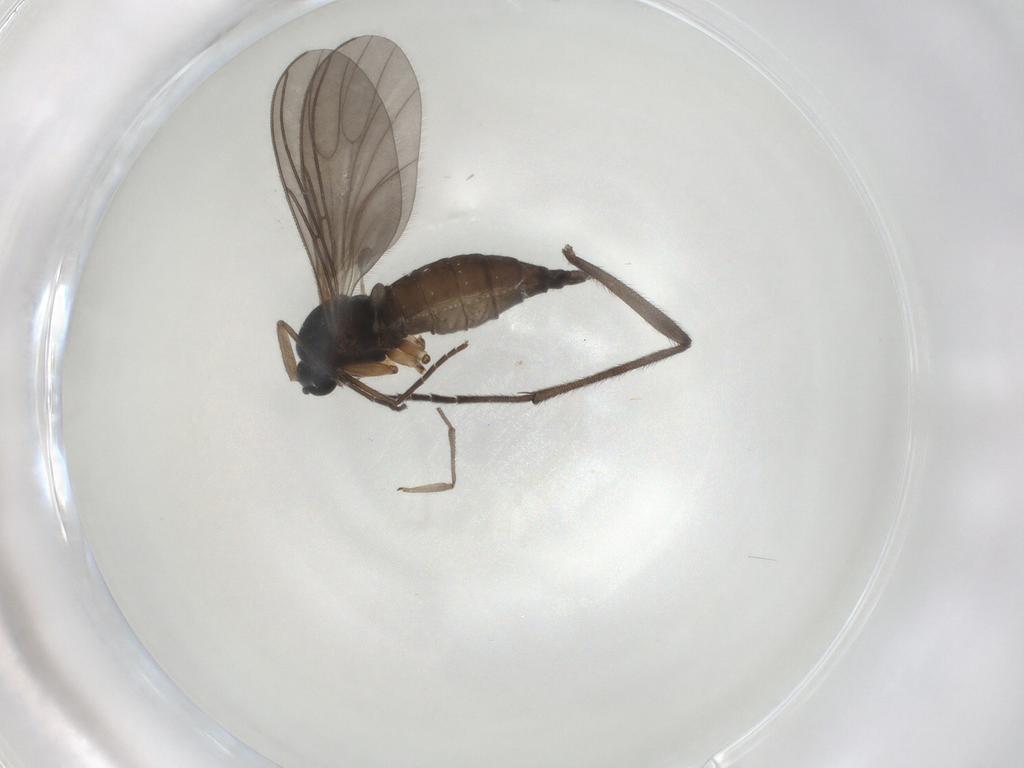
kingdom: Animalia
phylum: Arthropoda
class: Insecta
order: Diptera
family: Sciaridae
